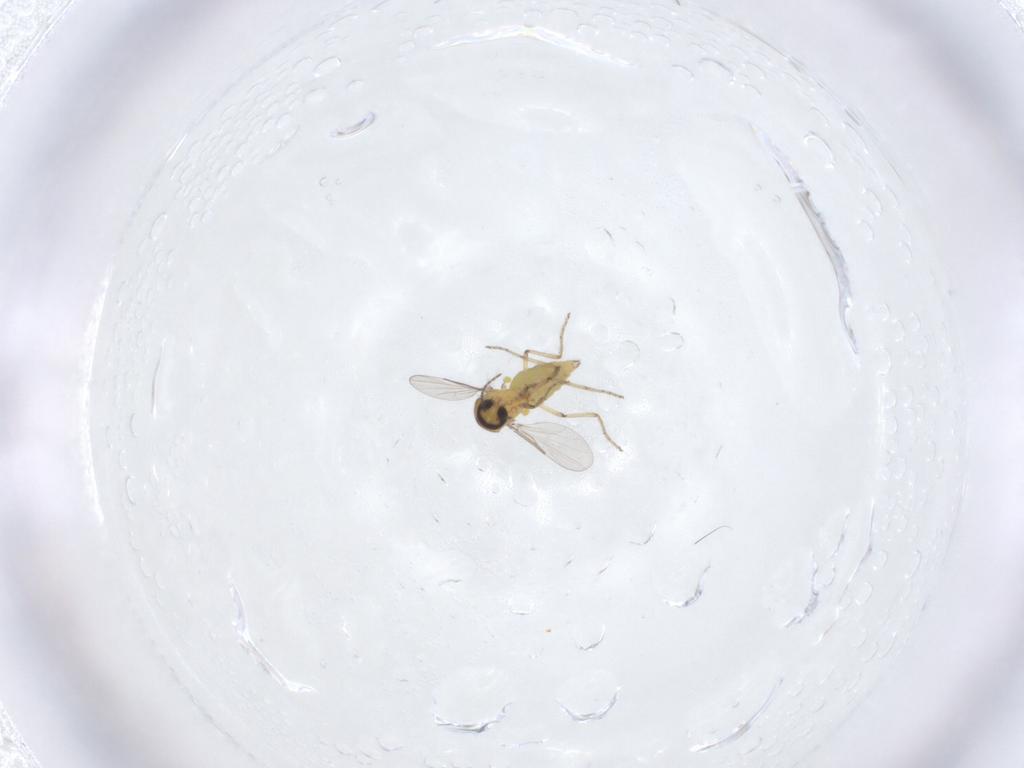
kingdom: Animalia
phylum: Arthropoda
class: Insecta
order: Diptera
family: Ceratopogonidae
